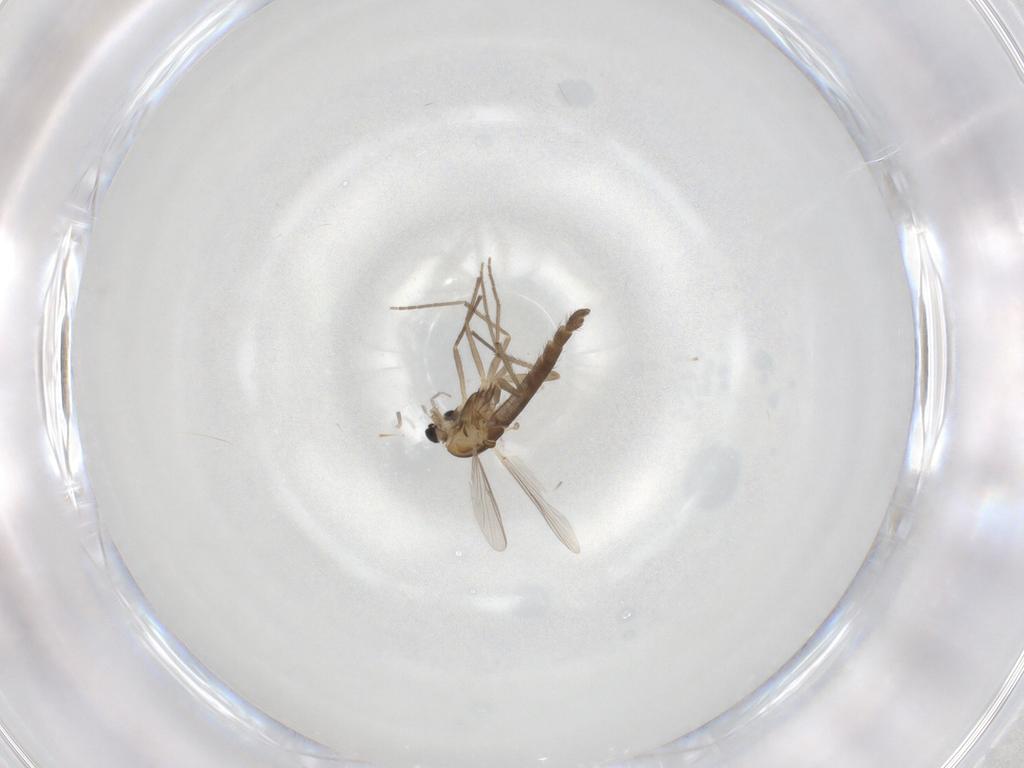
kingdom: Animalia
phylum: Arthropoda
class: Insecta
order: Diptera
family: Chironomidae
